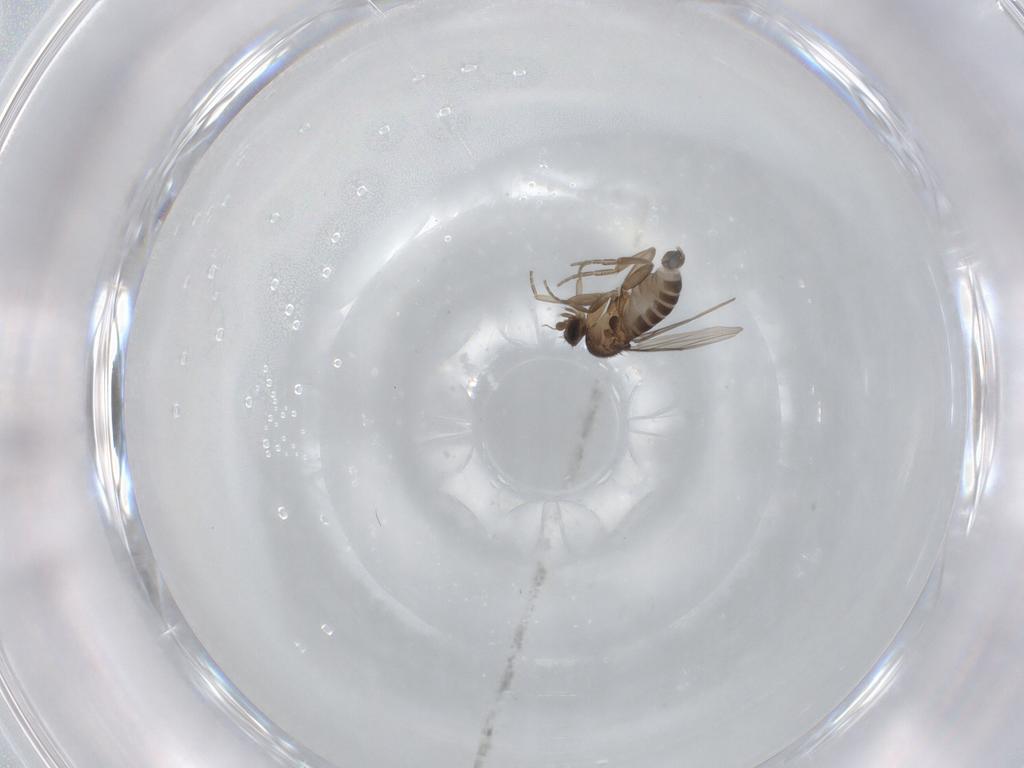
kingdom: Animalia
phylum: Arthropoda
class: Insecta
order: Diptera
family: Phoridae
